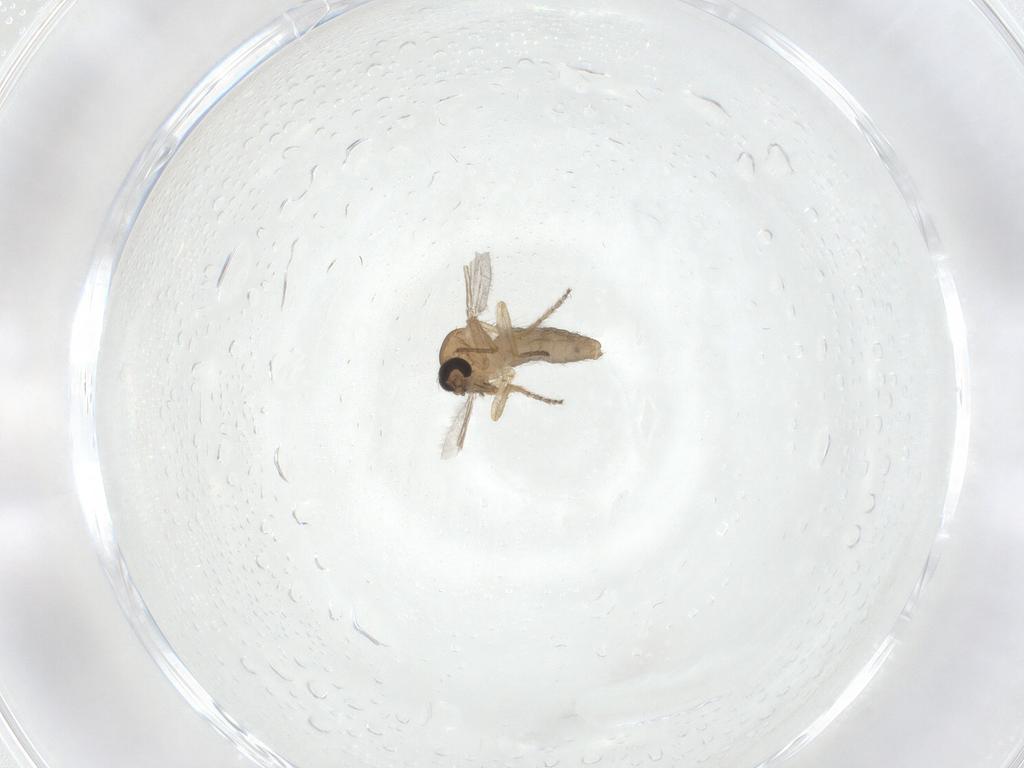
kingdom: Animalia
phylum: Arthropoda
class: Insecta
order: Diptera
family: Ceratopogonidae
